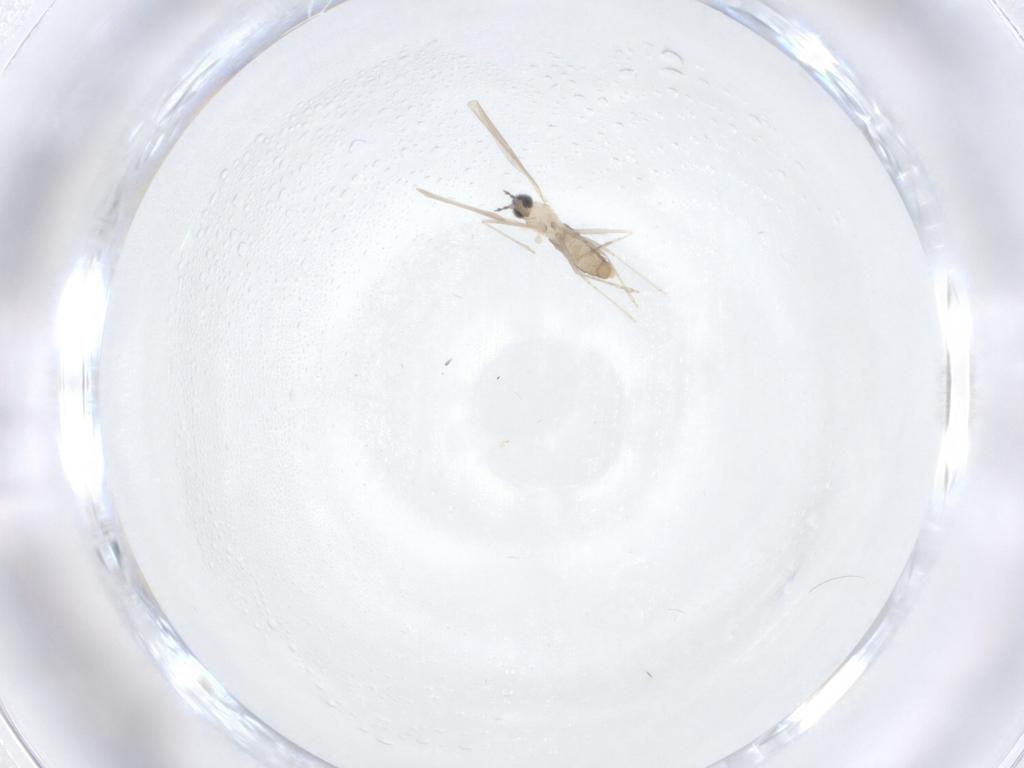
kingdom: Animalia
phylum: Arthropoda
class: Insecta
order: Diptera
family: Cecidomyiidae
